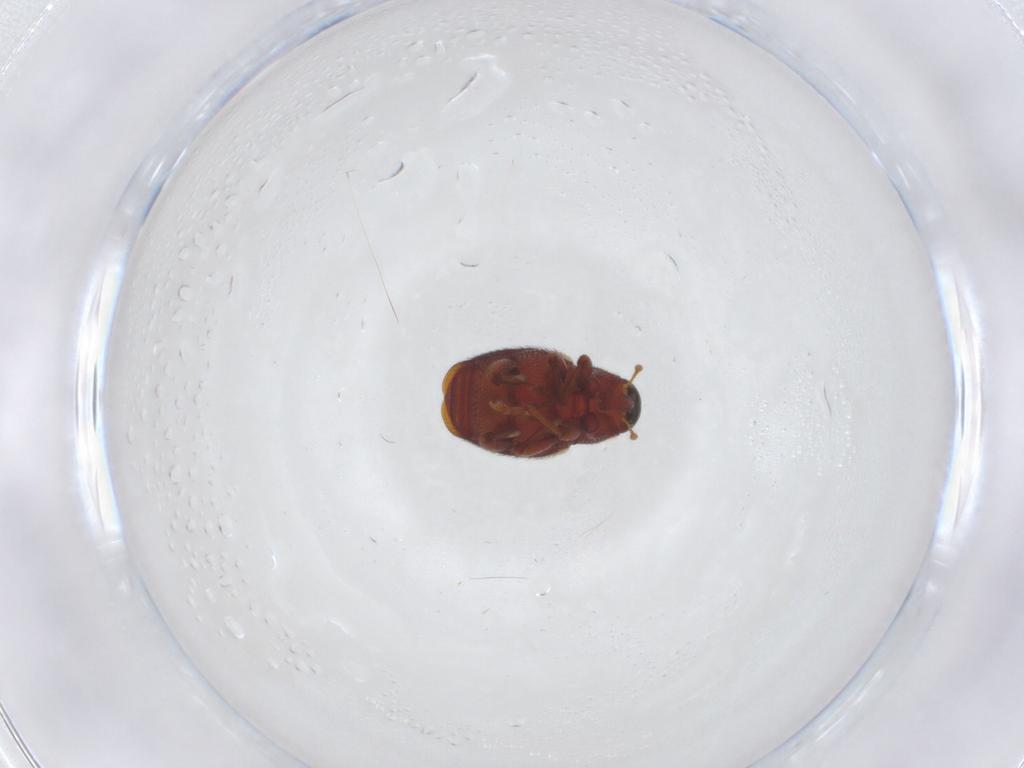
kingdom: Animalia
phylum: Arthropoda
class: Insecta
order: Coleoptera
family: Curculionidae
